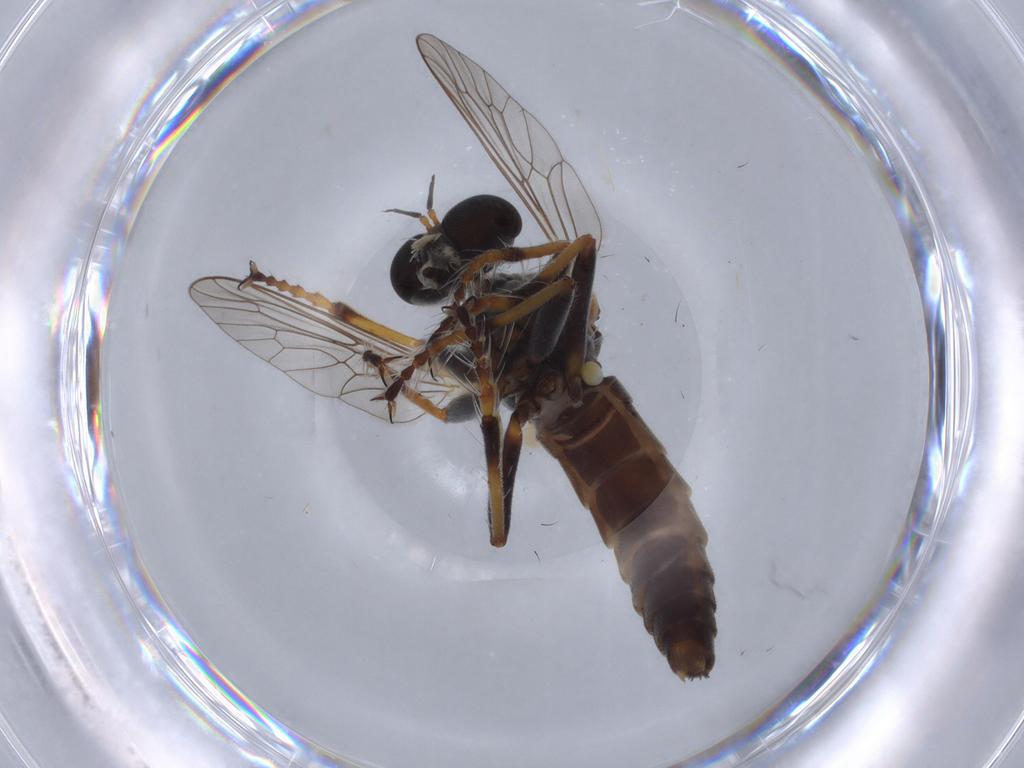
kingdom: Animalia
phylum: Arthropoda
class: Insecta
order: Diptera
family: Asilidae
